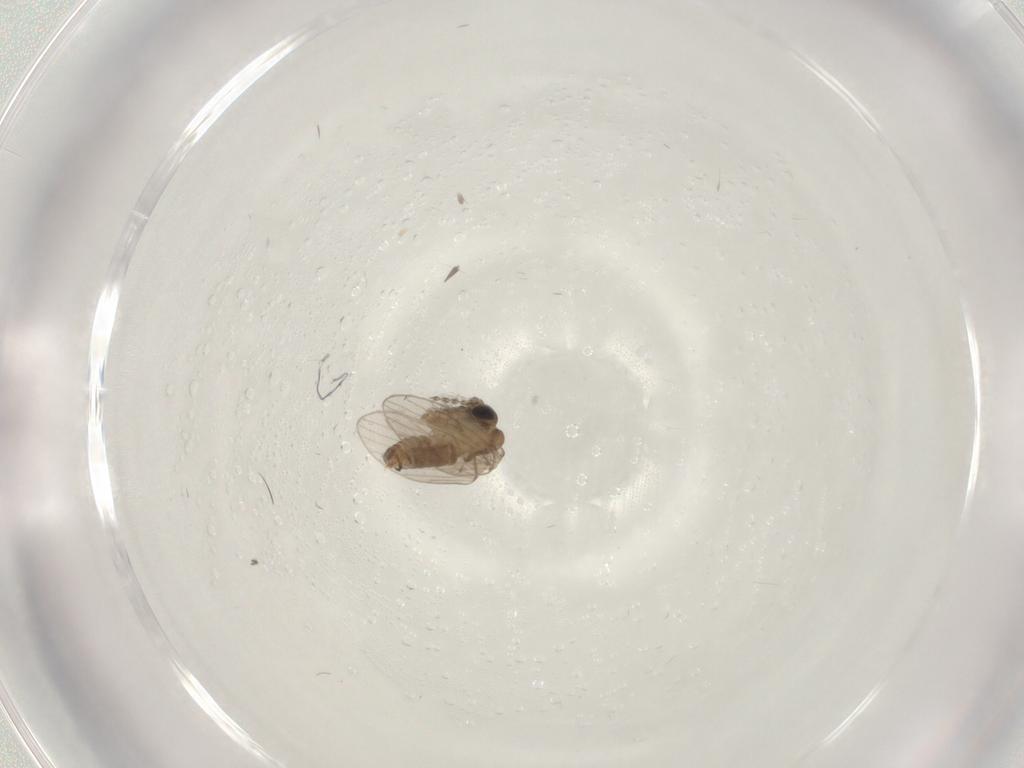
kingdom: Animalia
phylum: Arthropoda
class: Insecta
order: Diptera
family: Psychodidae
